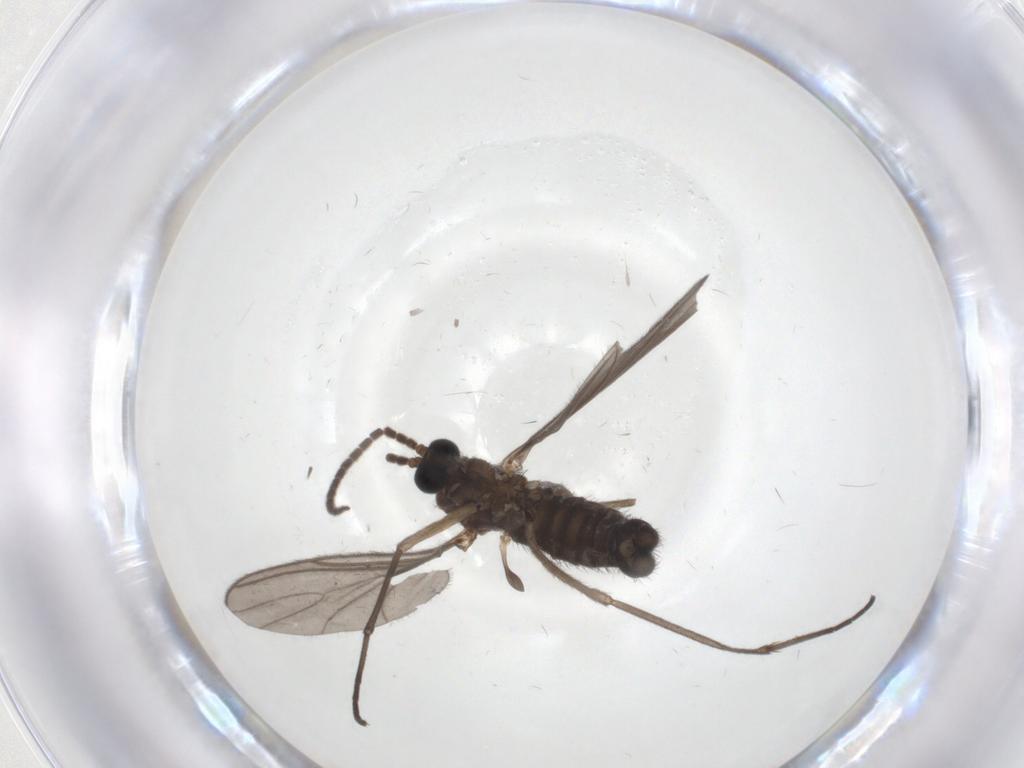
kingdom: Animalia
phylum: Arthropoda
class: Insecta
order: Diptera
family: Sciaridae
